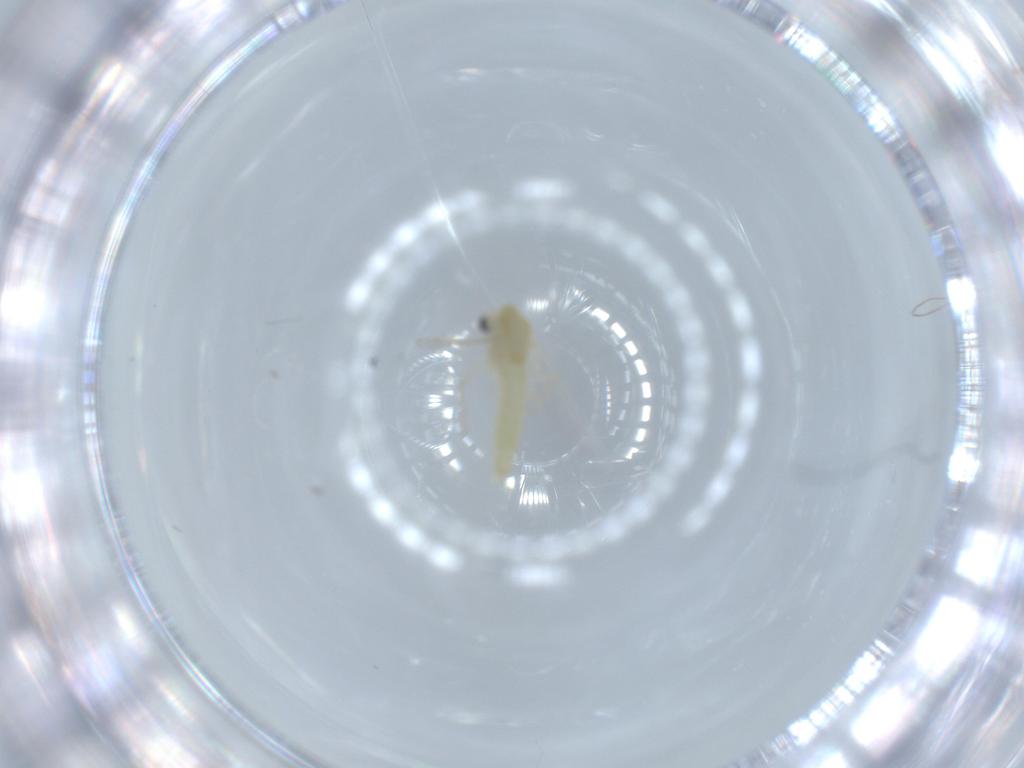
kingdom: Animalia
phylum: Arthropoda
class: Insecta
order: Diptera
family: Chironomidae
